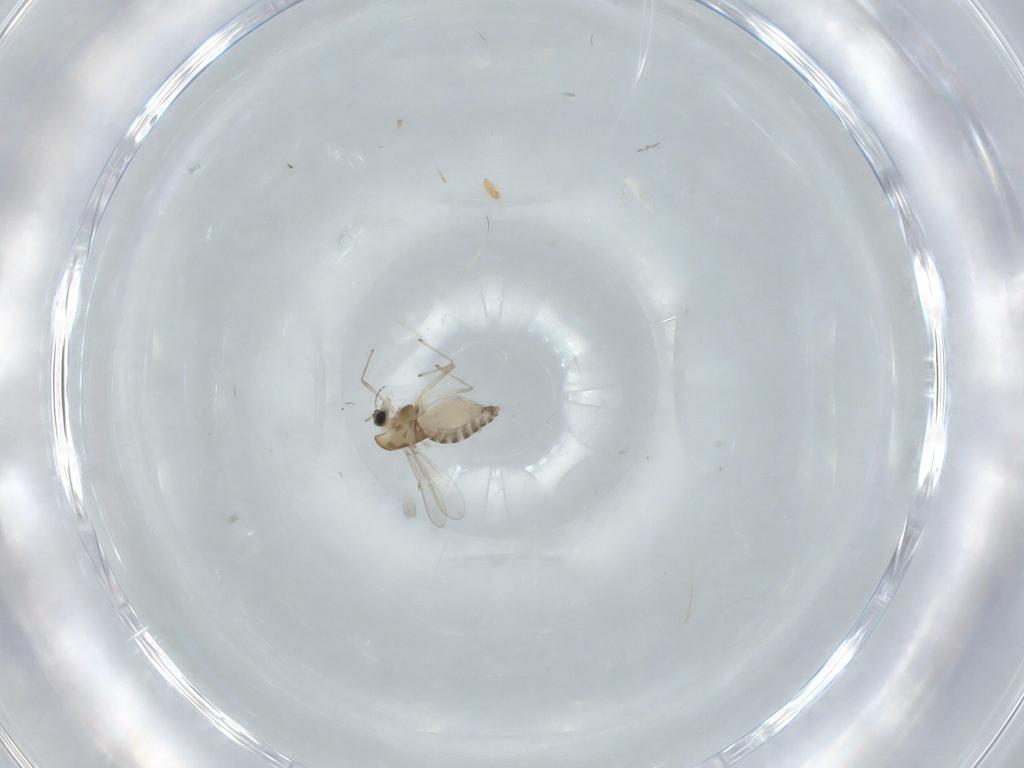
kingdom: Animalia
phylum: Arthropoda
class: Insecta
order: Diptera
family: Chironomidae
